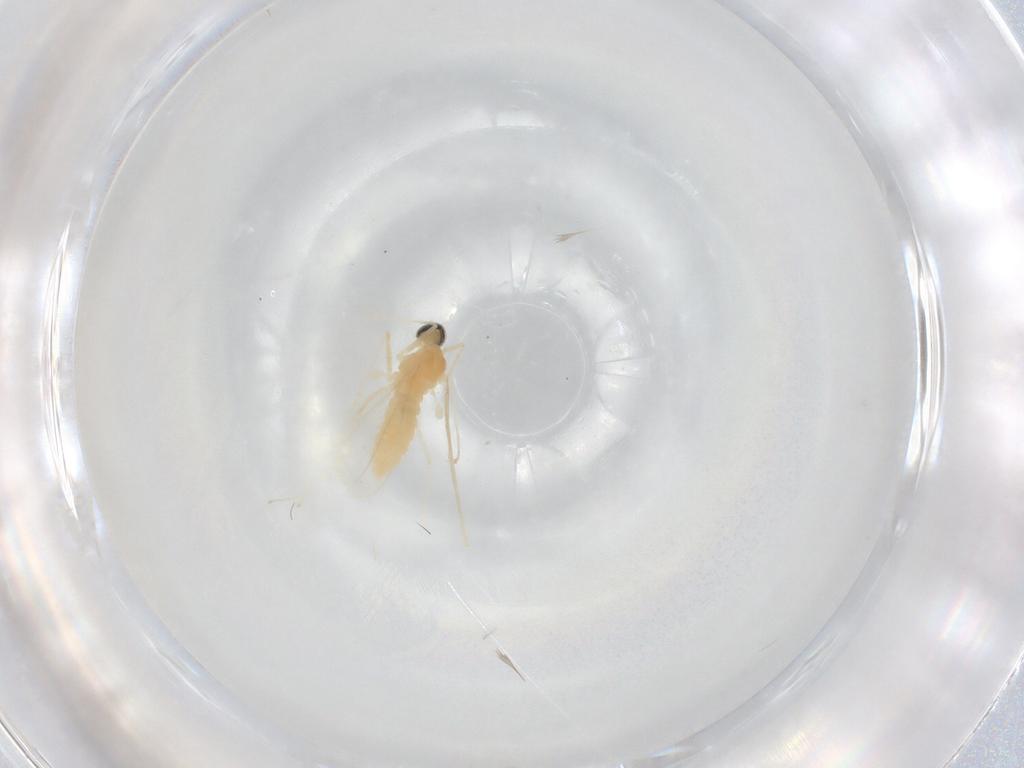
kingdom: Animalia
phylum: Arthropoda
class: Insecta
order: Diptera
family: Cecidomyiidae
